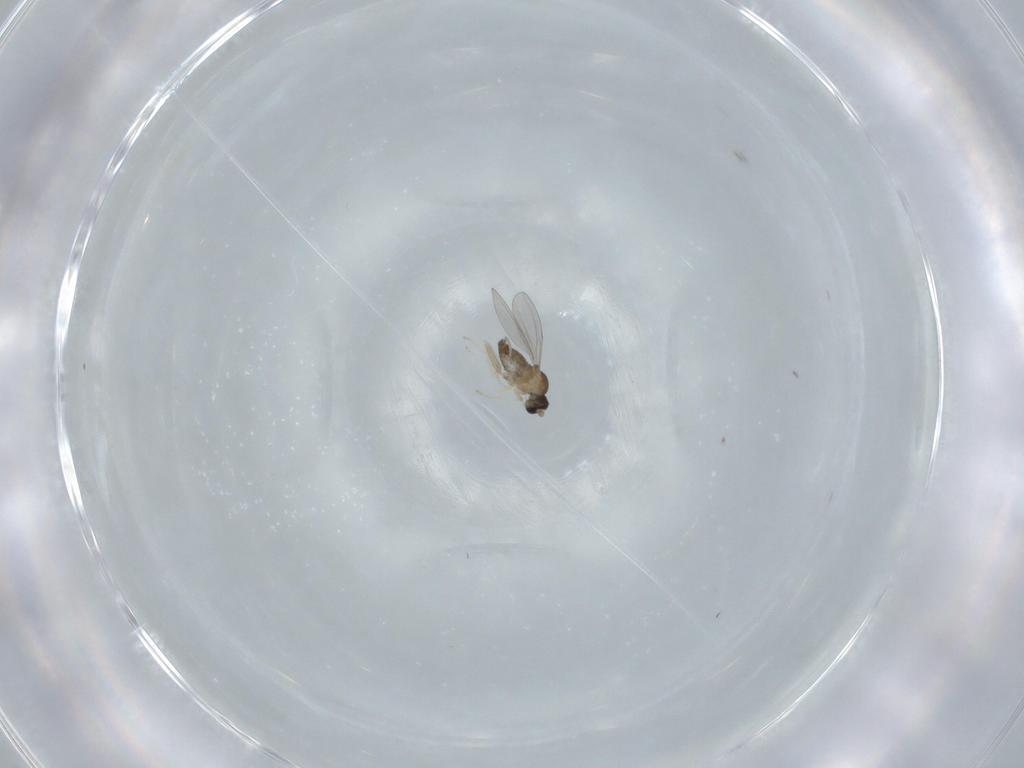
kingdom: Animalia
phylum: Arthropoda
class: Insecta
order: Diptera
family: Cecidomyiidae
